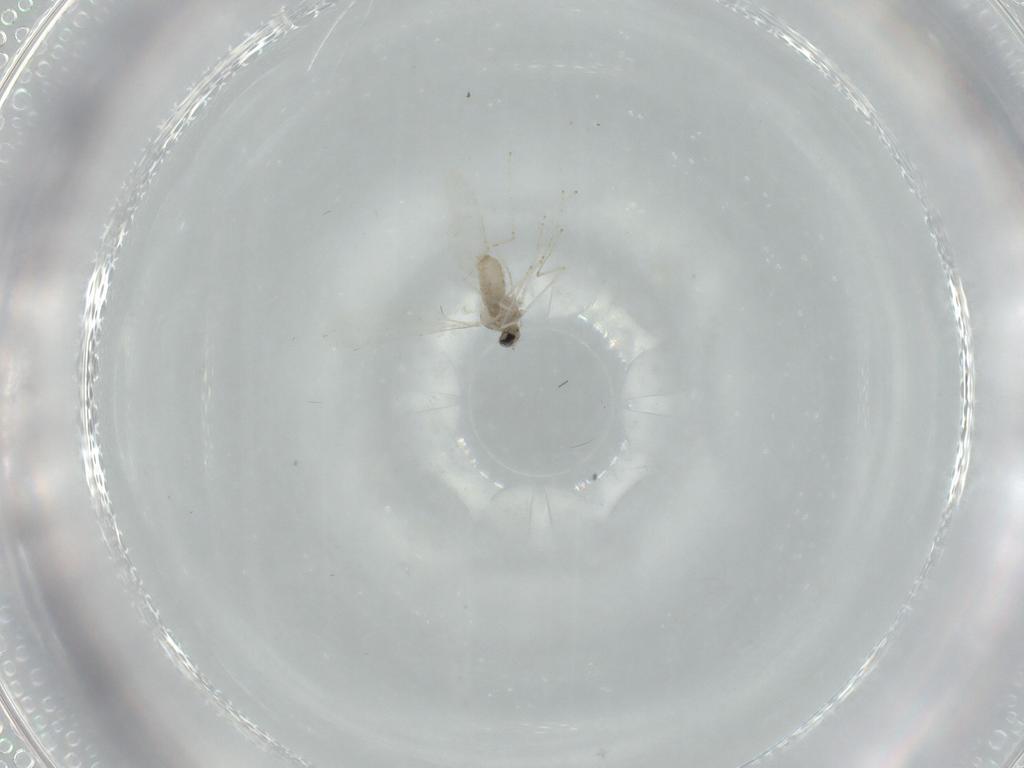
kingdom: Animalia
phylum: Arthropoda
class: Insecta
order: Diptera
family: Cecidomyiidae
